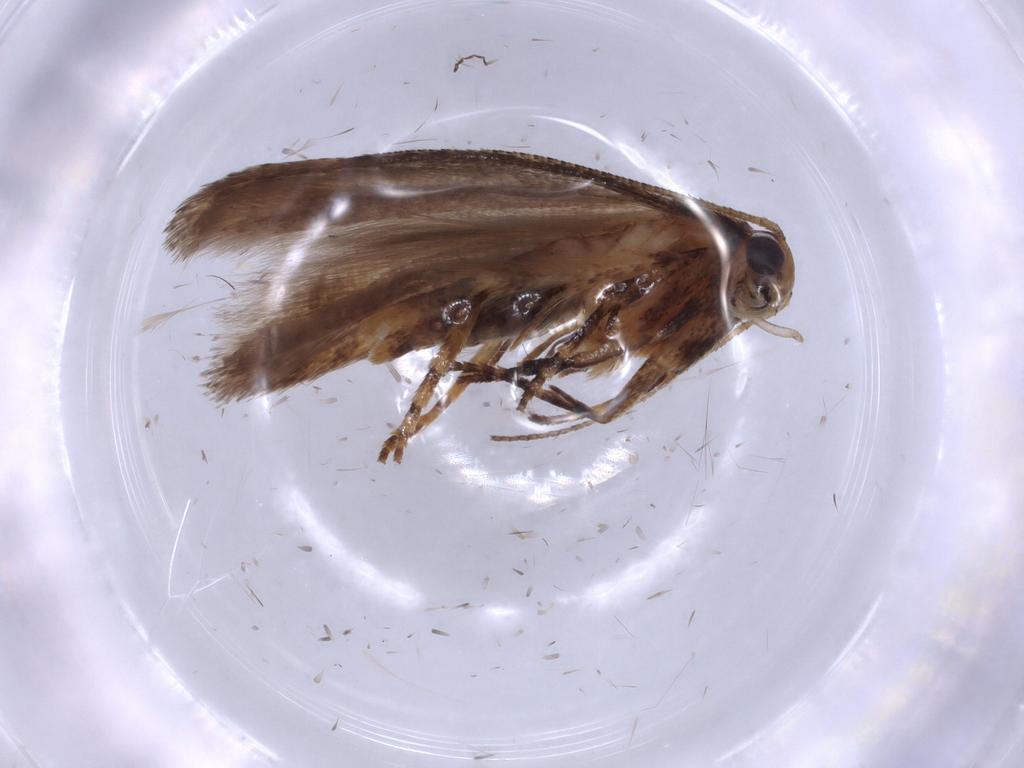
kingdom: Animalia
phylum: Arthropoda
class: Insecta
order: Lepidoptera
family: Gelechiidae
